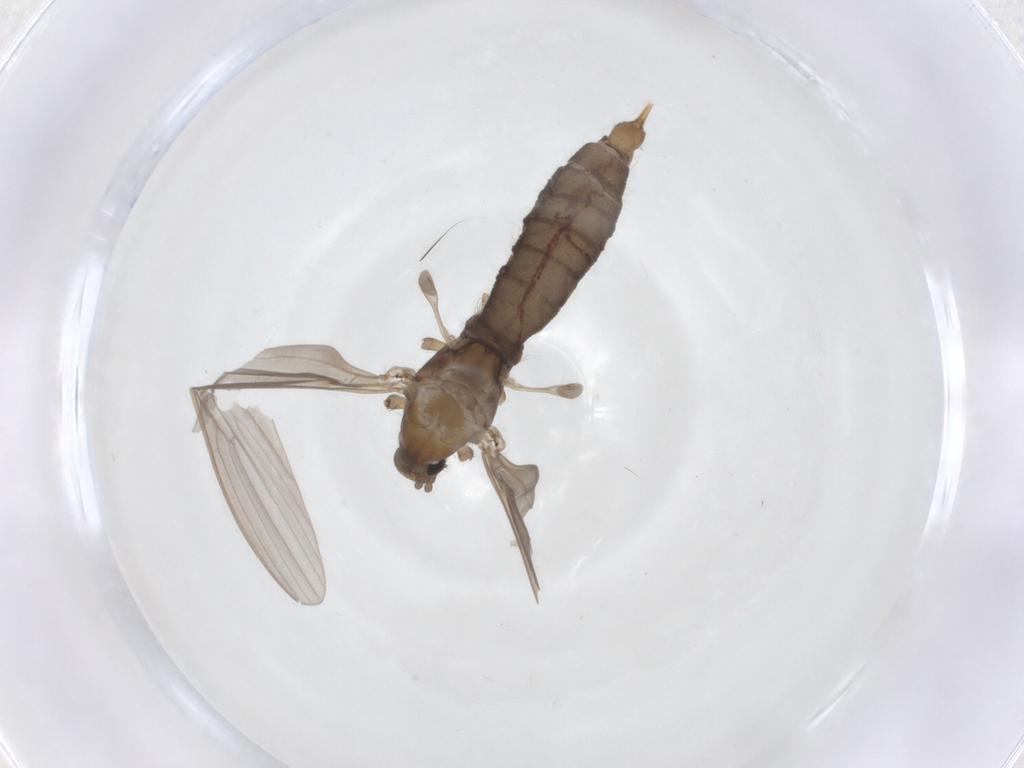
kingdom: Animalia
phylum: Arthropoda
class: Insecta
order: Diptera
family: Limoniidae
